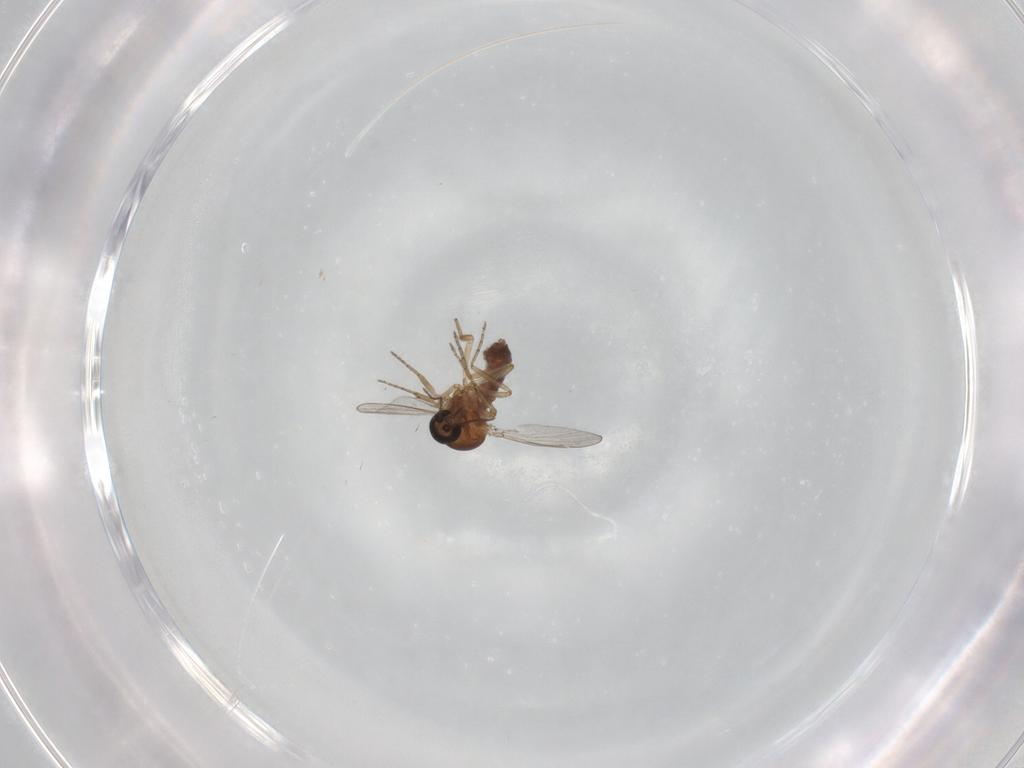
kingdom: Animalia
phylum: Arthropoda
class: Insecta
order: Diptera
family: Ceratopogonidae
